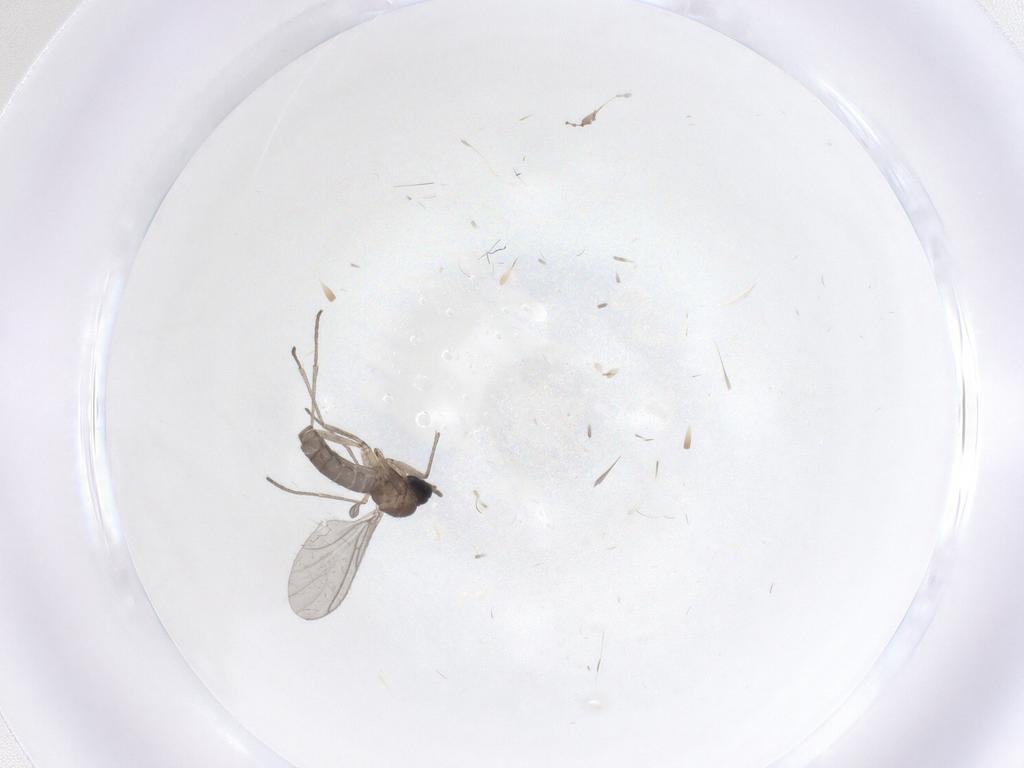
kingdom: Animalia
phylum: Arthropoda
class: Insecta
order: Diptera
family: Sciaridae
